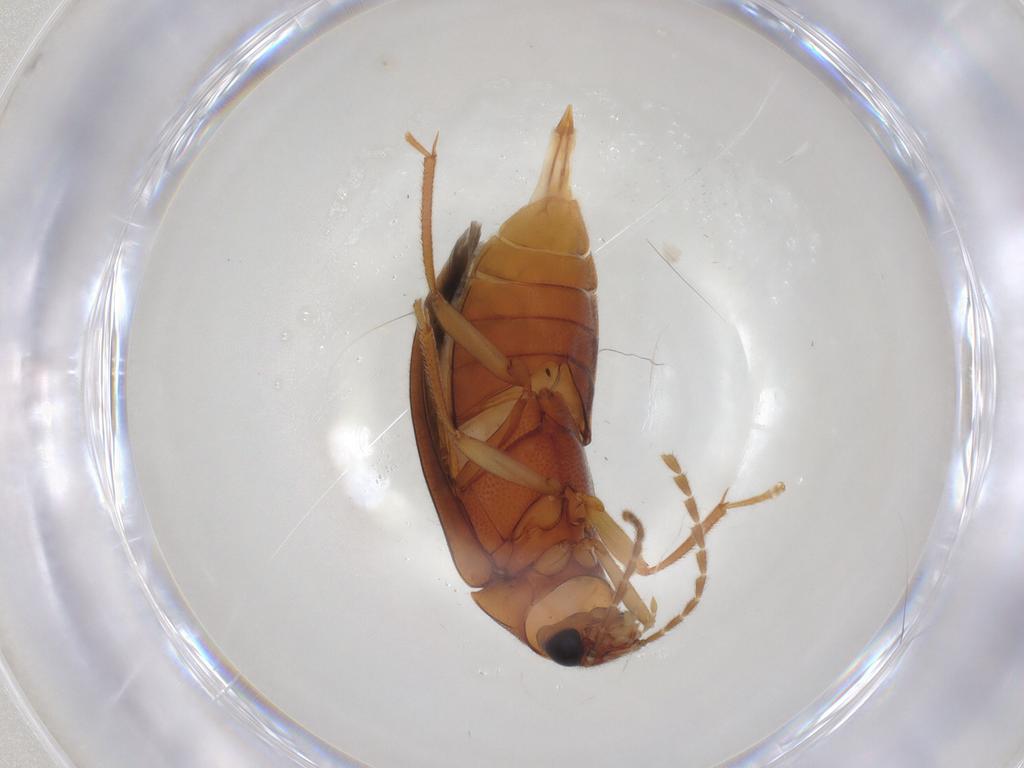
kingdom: Animalia
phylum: Arthropoda
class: Insecta
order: Coleoptera
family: Ptilodactylidae
